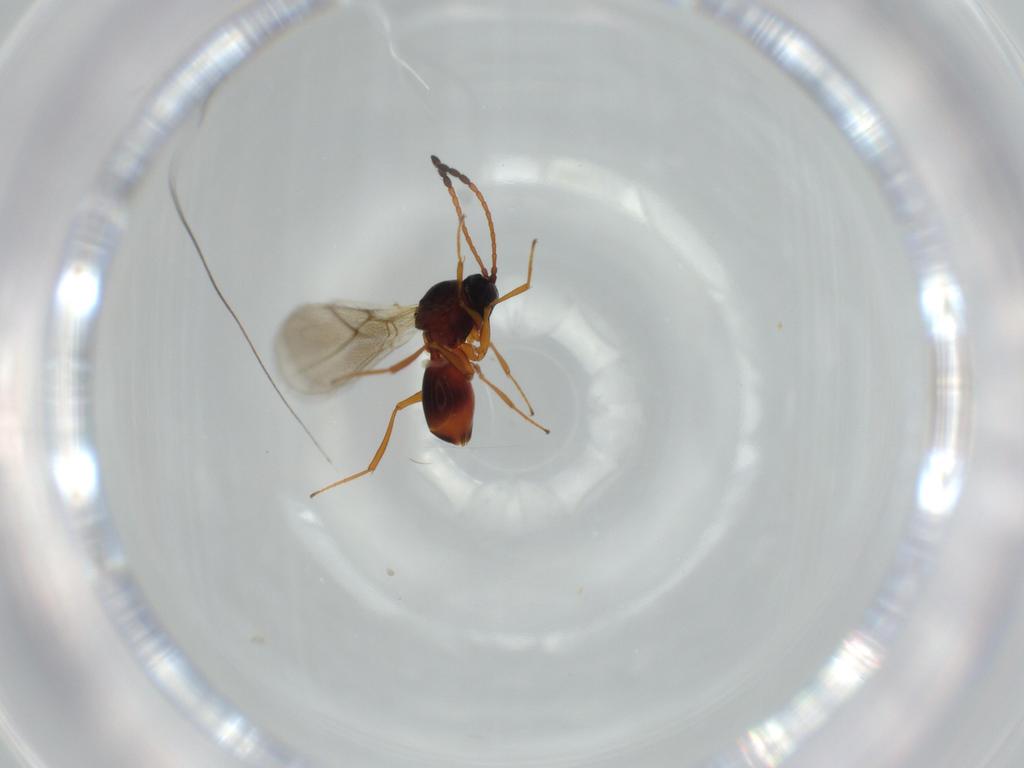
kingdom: Animalia
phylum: Arthropoda
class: Insecta
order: Hymenoptera
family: Figitidae
